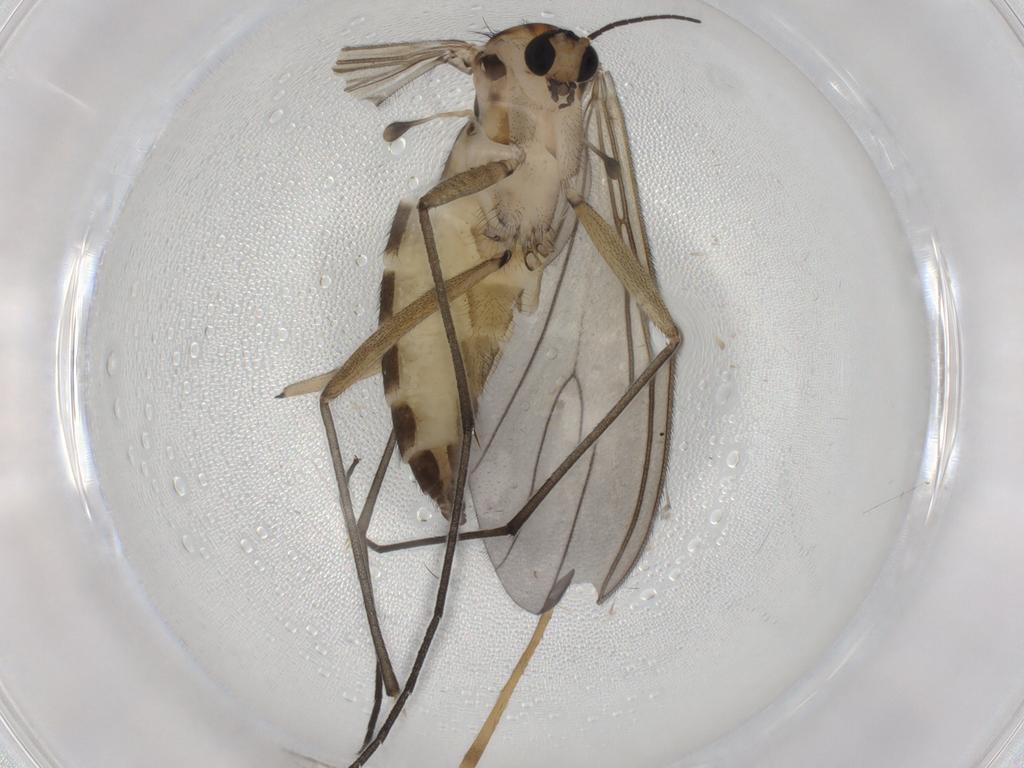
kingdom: Animalia
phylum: Arthropoda
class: Insecta
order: Diptera
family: Sciaridae
